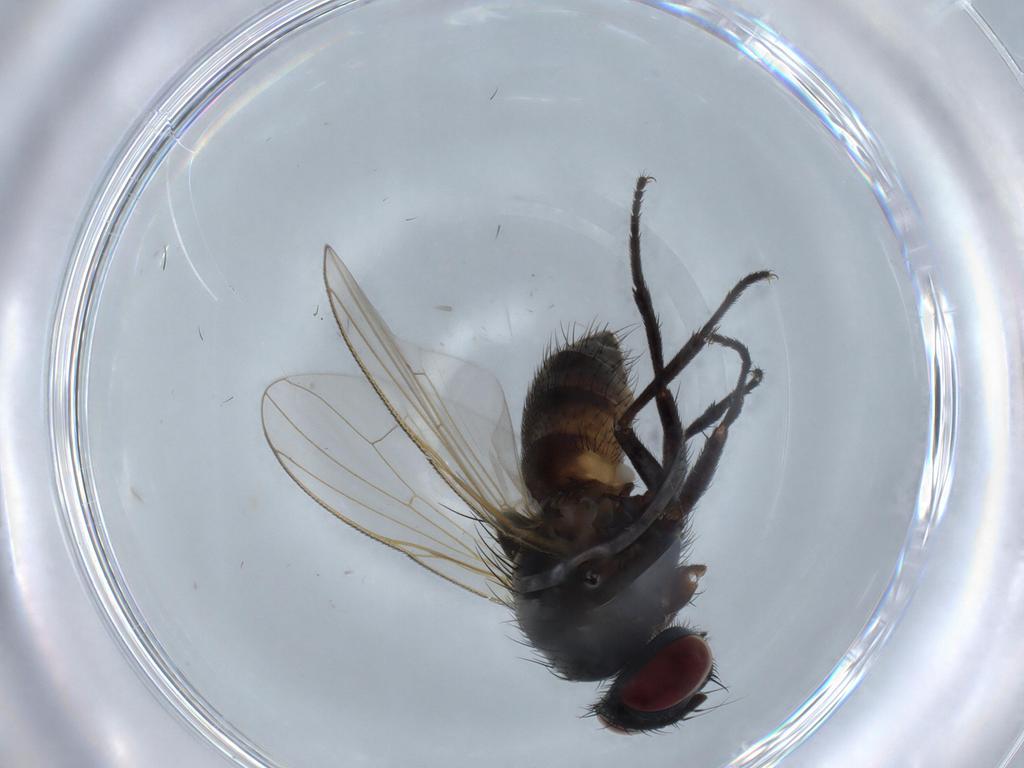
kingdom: Animalia
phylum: Arthropoda
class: Insecta
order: Diptera
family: Muscidae
